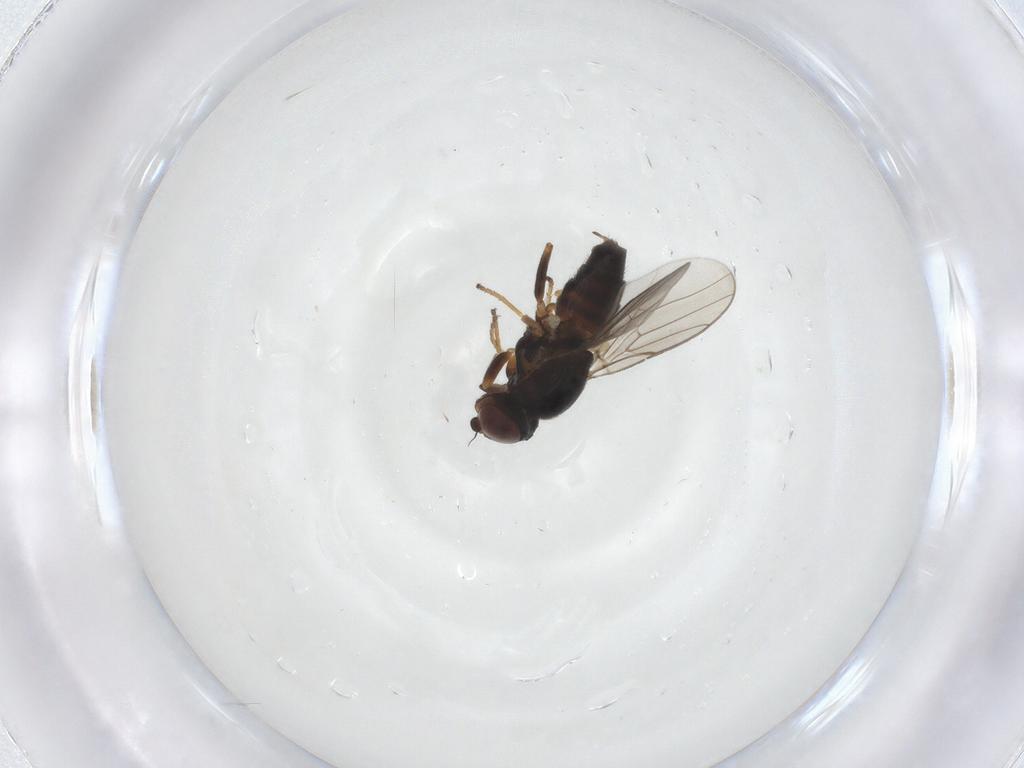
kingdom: Animalia
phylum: Arthropoda
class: Insecta
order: Diptera
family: Chloropidae
